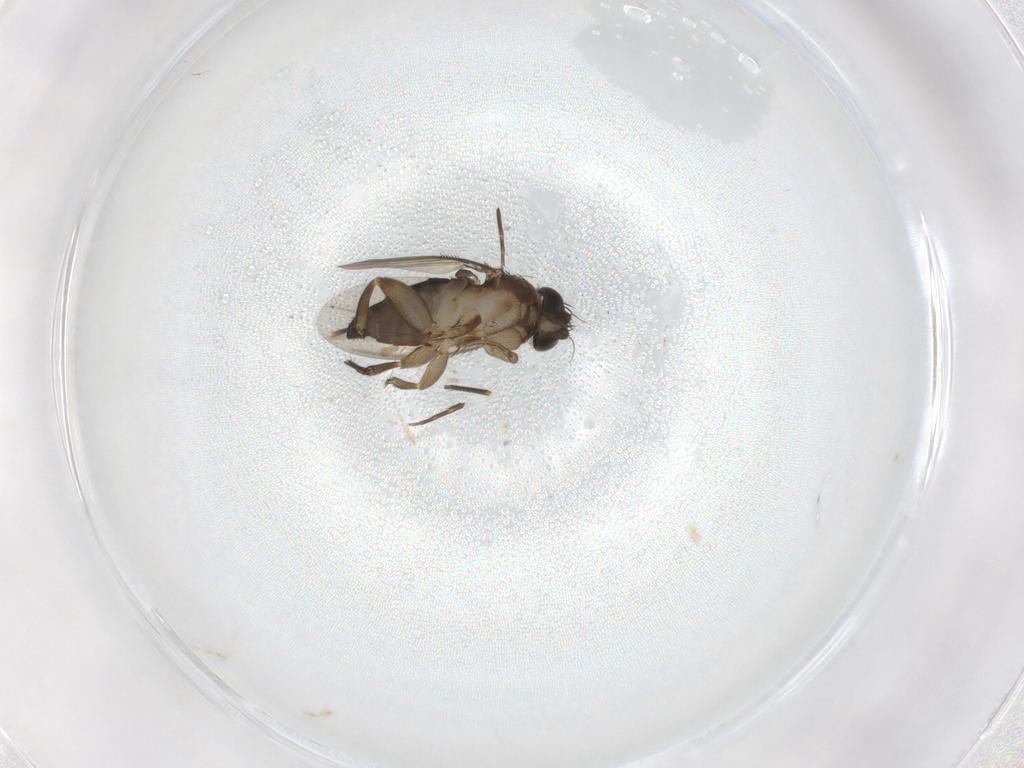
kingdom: Animalia
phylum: Arthropoda
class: Insecta
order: Diptera
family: Phoridae
